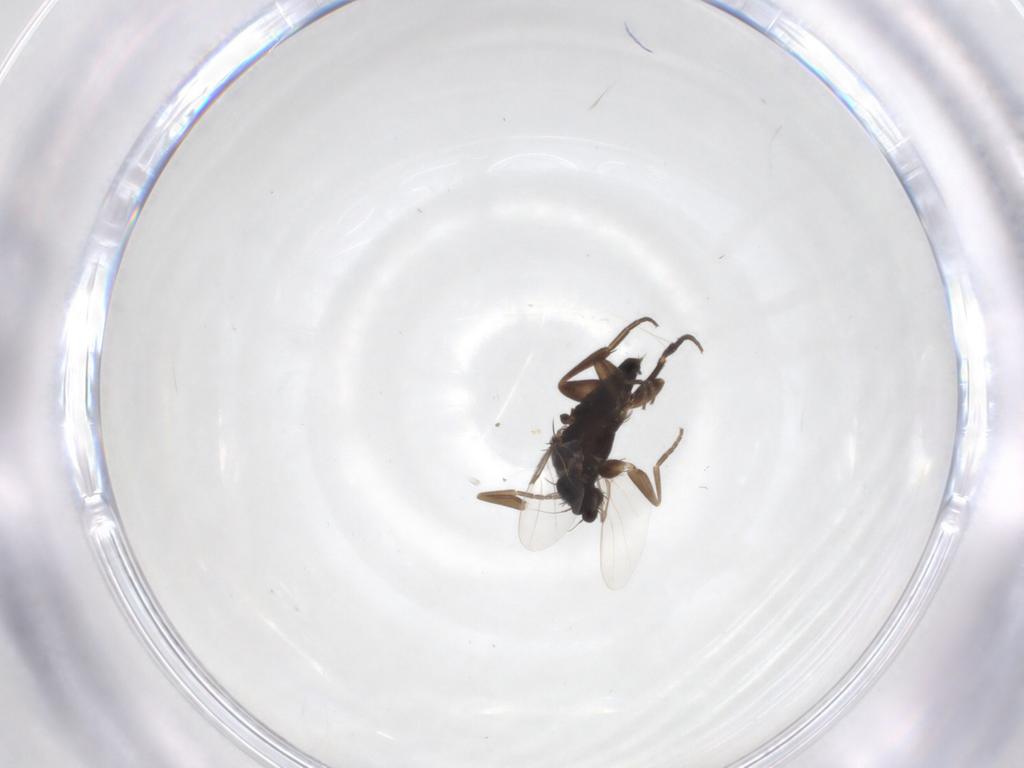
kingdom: Animalia
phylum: Arthropoda
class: Insecta
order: Diptera
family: Phoridae
